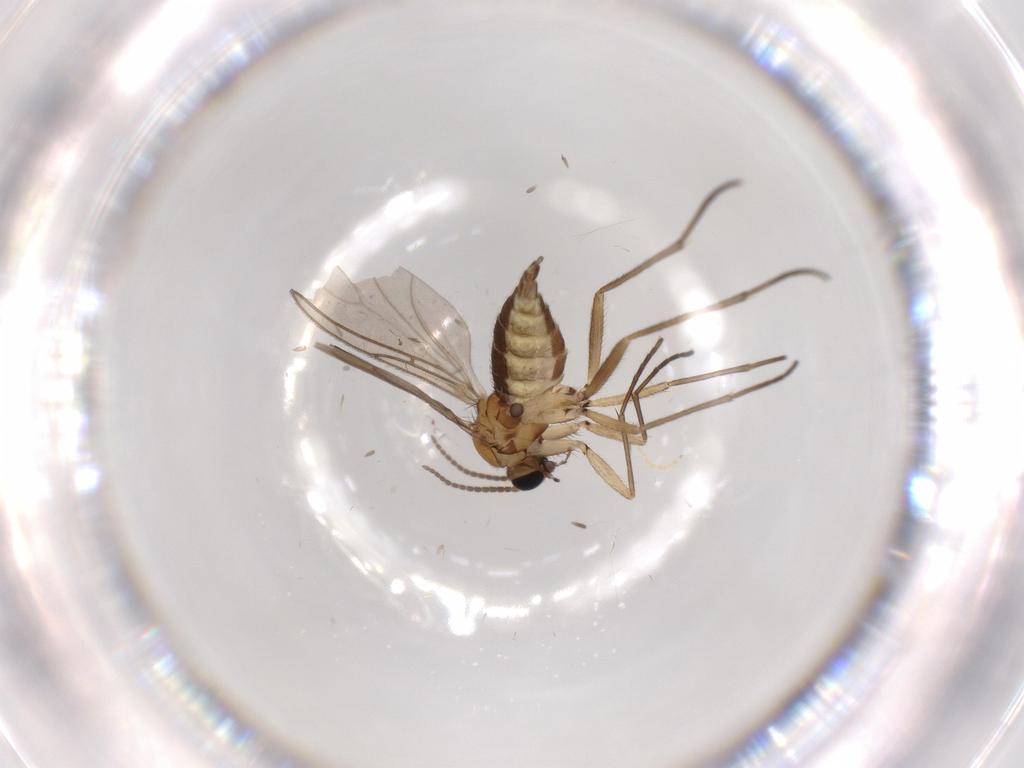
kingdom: Animalia
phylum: Arthropoda
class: Insecta
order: Diptera
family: Sciaridae
